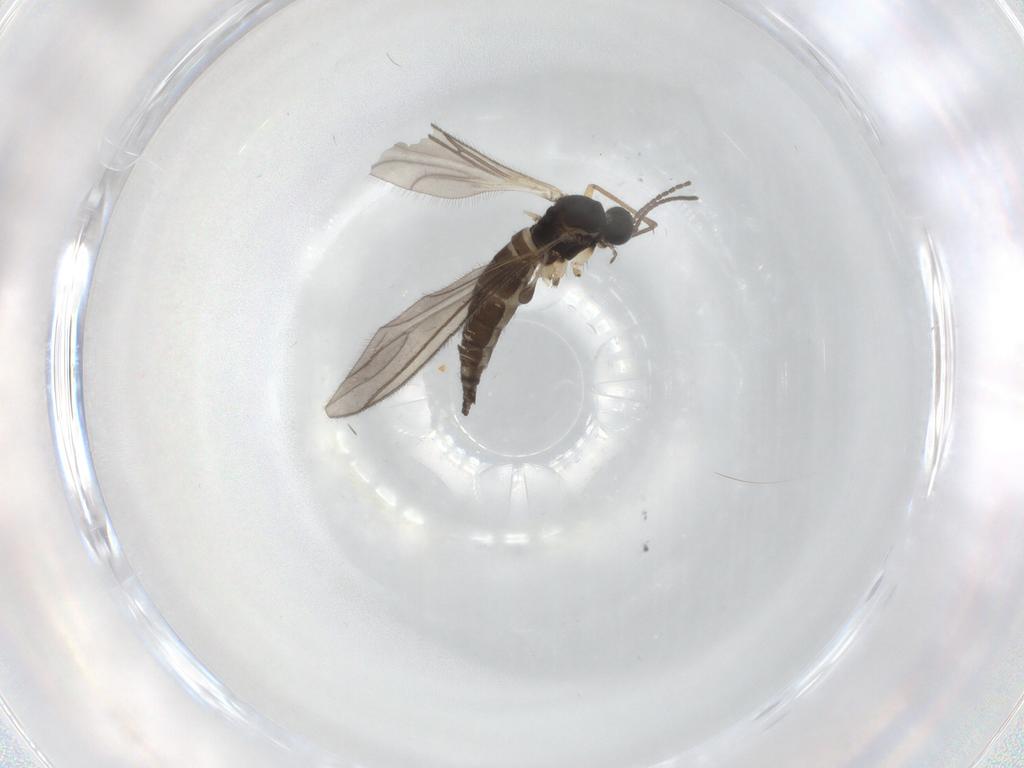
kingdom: Animalia
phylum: Arthropoda
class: Insecta
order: Diptera
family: Sciaridae
